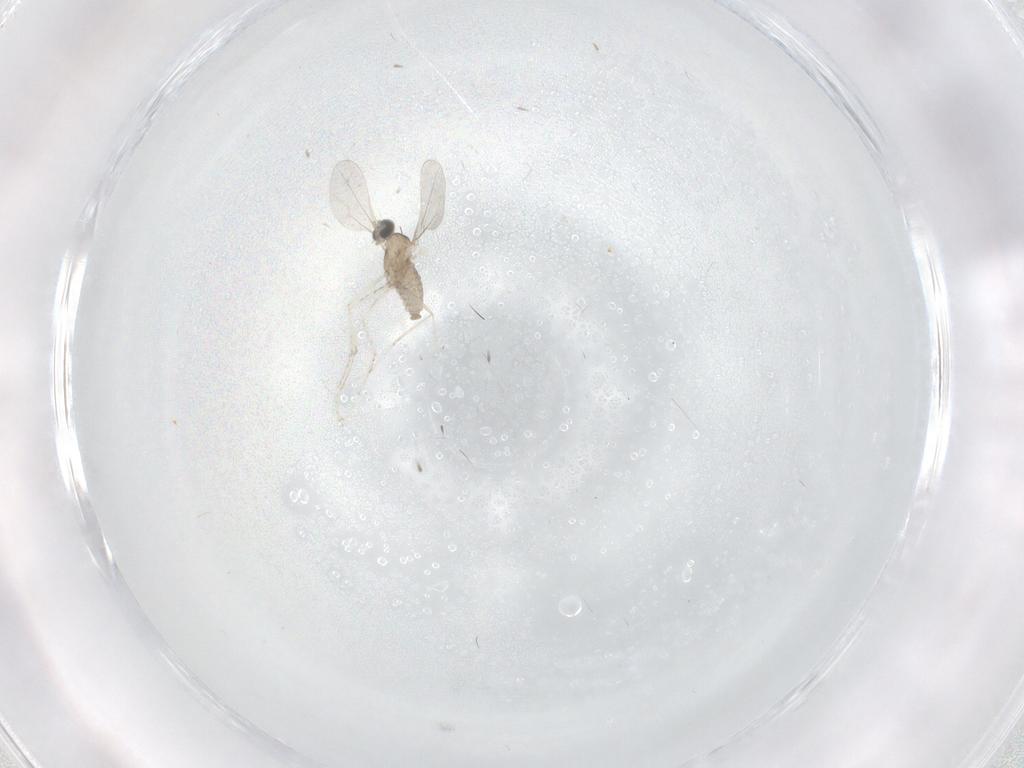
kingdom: Animalia
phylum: Arthropoda
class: Insecta
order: Diptera
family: Cecidomyiidae
